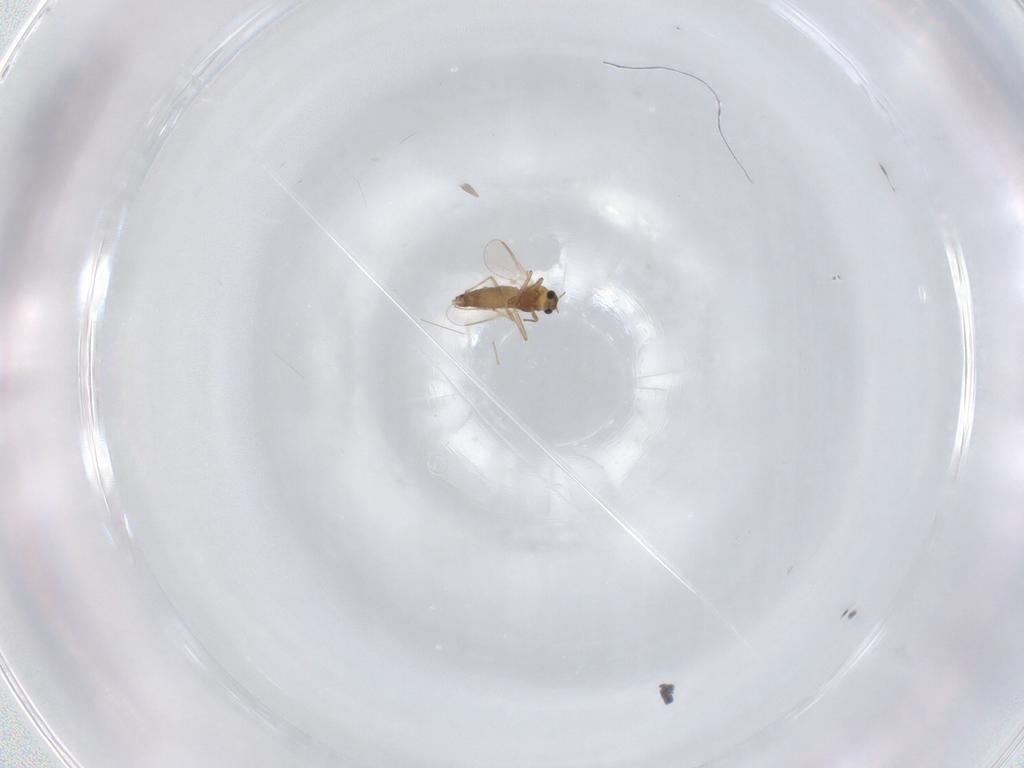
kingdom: Animalia
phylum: Arthropoda
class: Insecta
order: Diptera
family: Chironomidae
